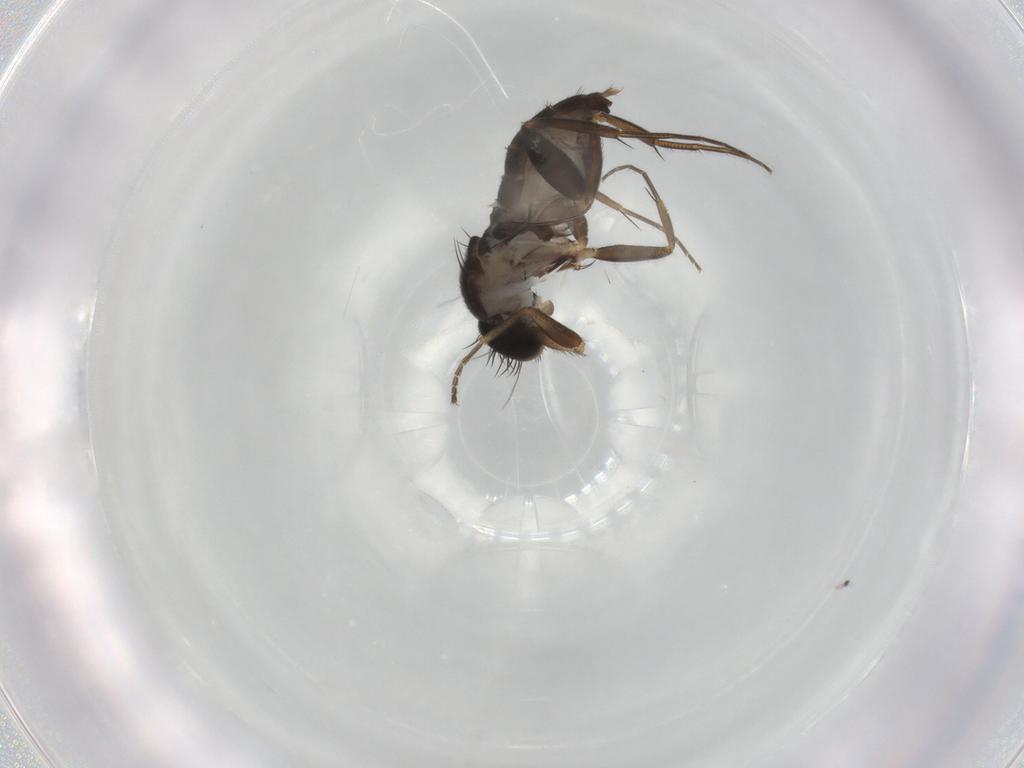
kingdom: Animalia
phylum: Arthropoda
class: Insecta
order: Diptera
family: Phoridae
